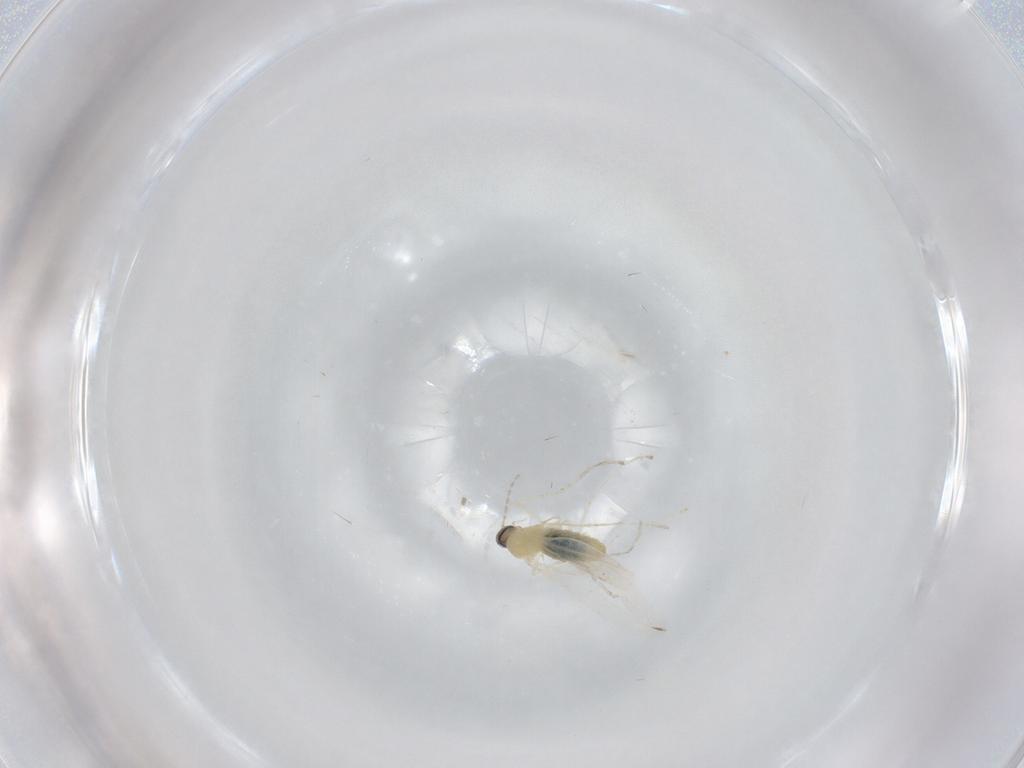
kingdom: Animalia
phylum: Arthropoda
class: Insecta
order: Diptera
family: Cecidomyiidae
